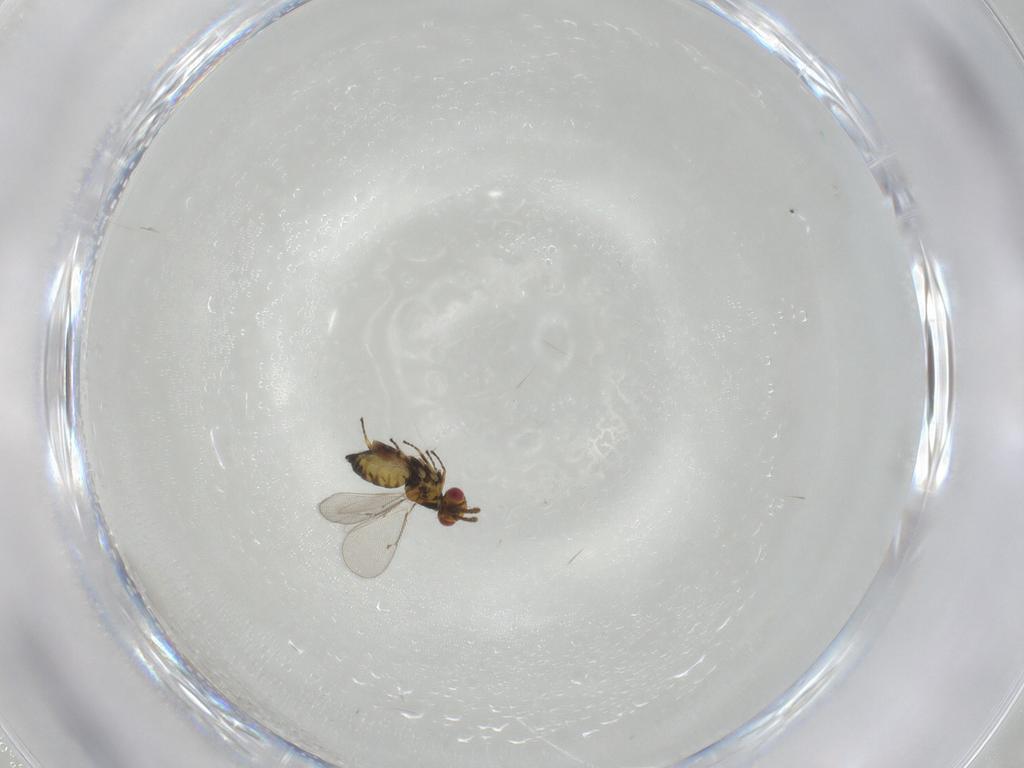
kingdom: Animalia
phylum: Arthropoda
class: Insecta
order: Hymenoptera
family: Eulophidae
